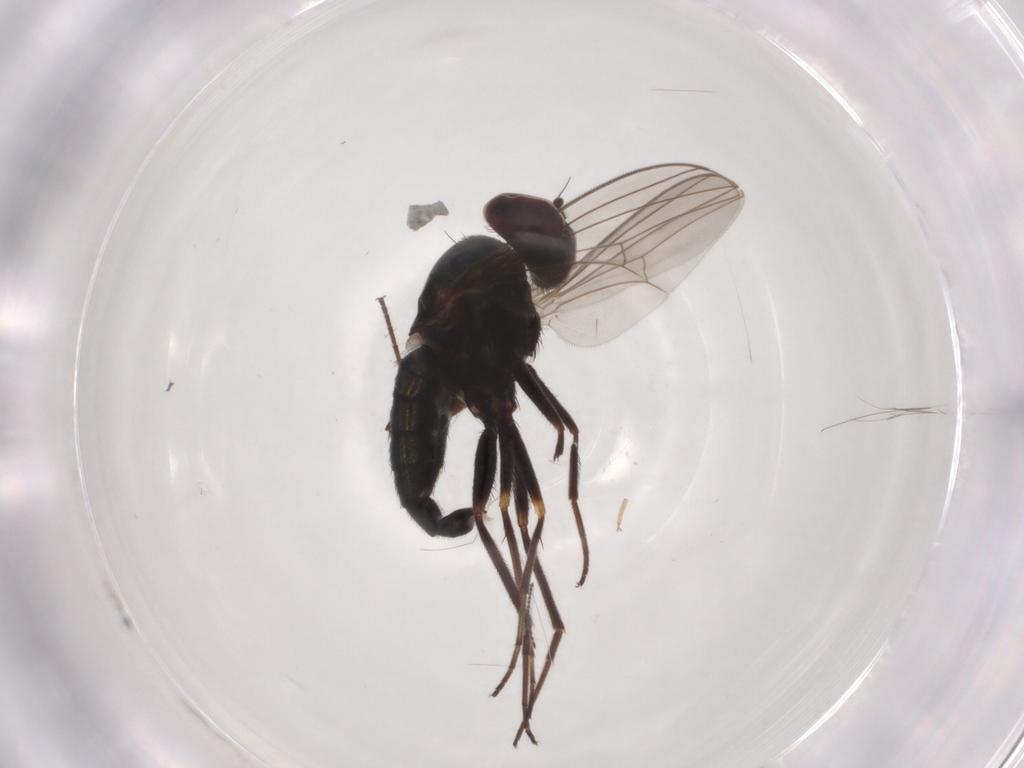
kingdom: Animalia
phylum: Arthropoda
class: Insecta
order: Diptera
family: Dolichopodidae
